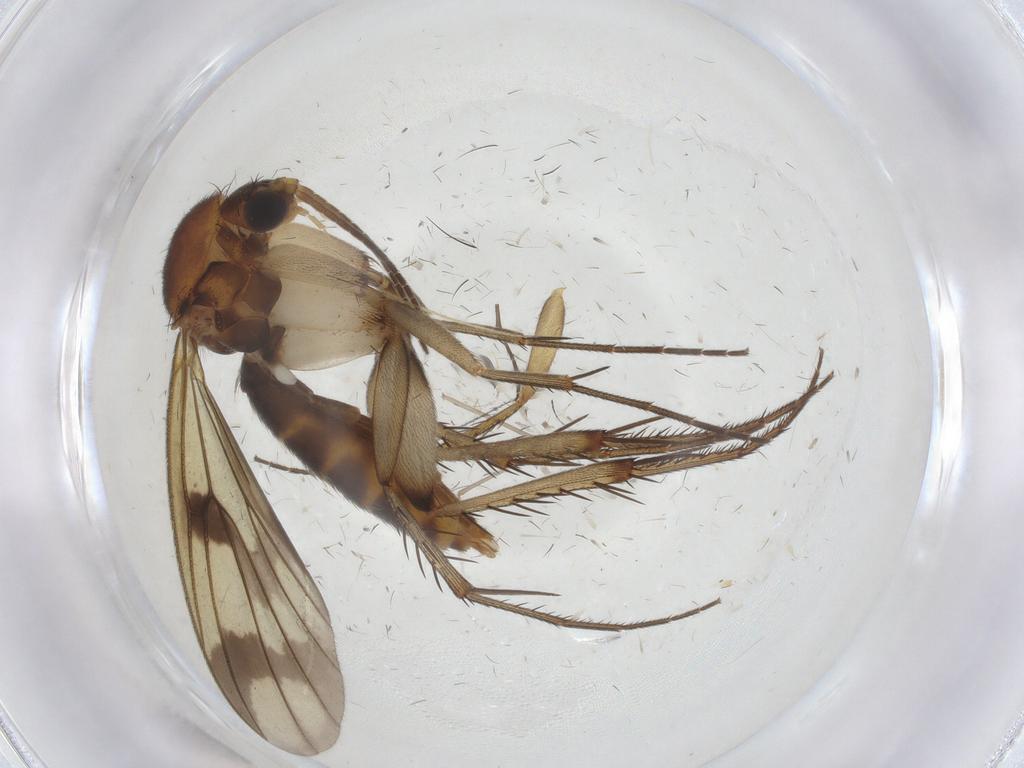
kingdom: Animalia
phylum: Arthropoda
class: Insecta
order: Diptera
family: Cecidomyiidae
